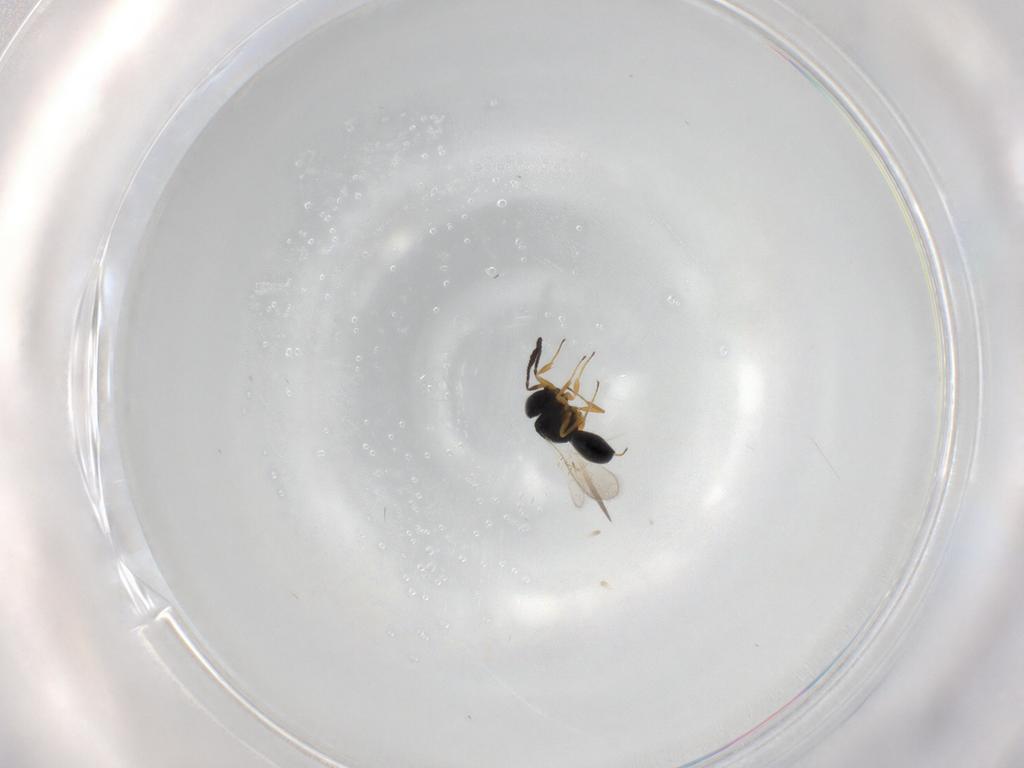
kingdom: Animalia
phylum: Arthropoda
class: Insecta
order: Hymenoptera
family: Scelionidae
